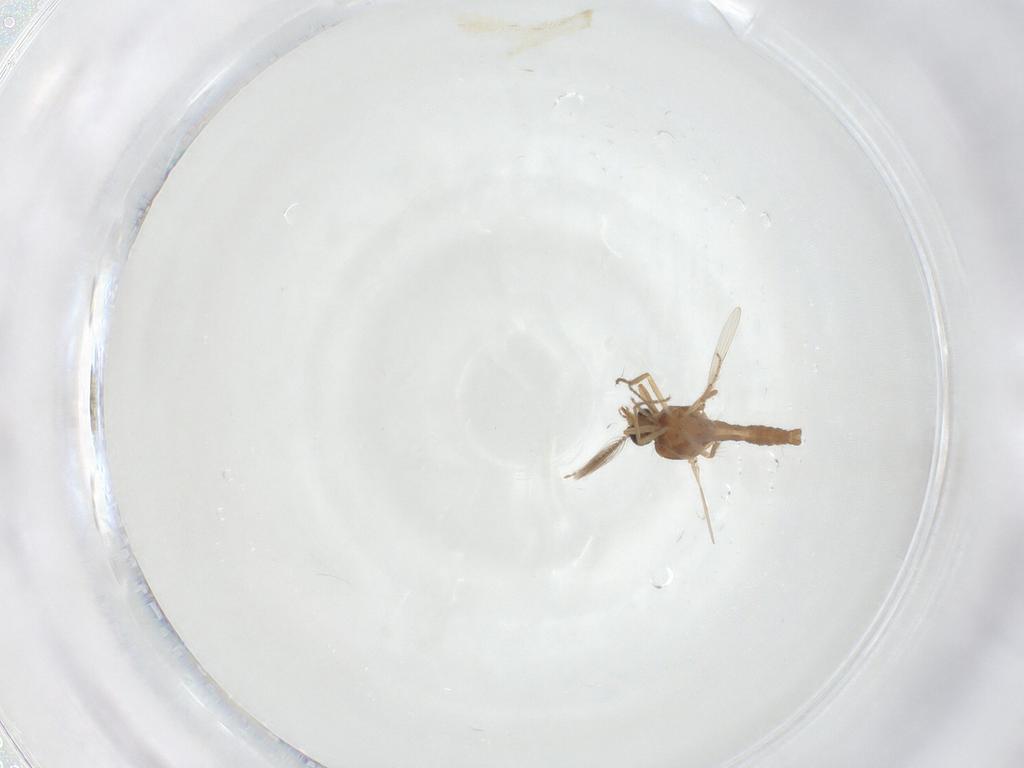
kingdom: Animalia
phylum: Arthropoda
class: Insecta
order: Diptera
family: Ceratopogonidae
